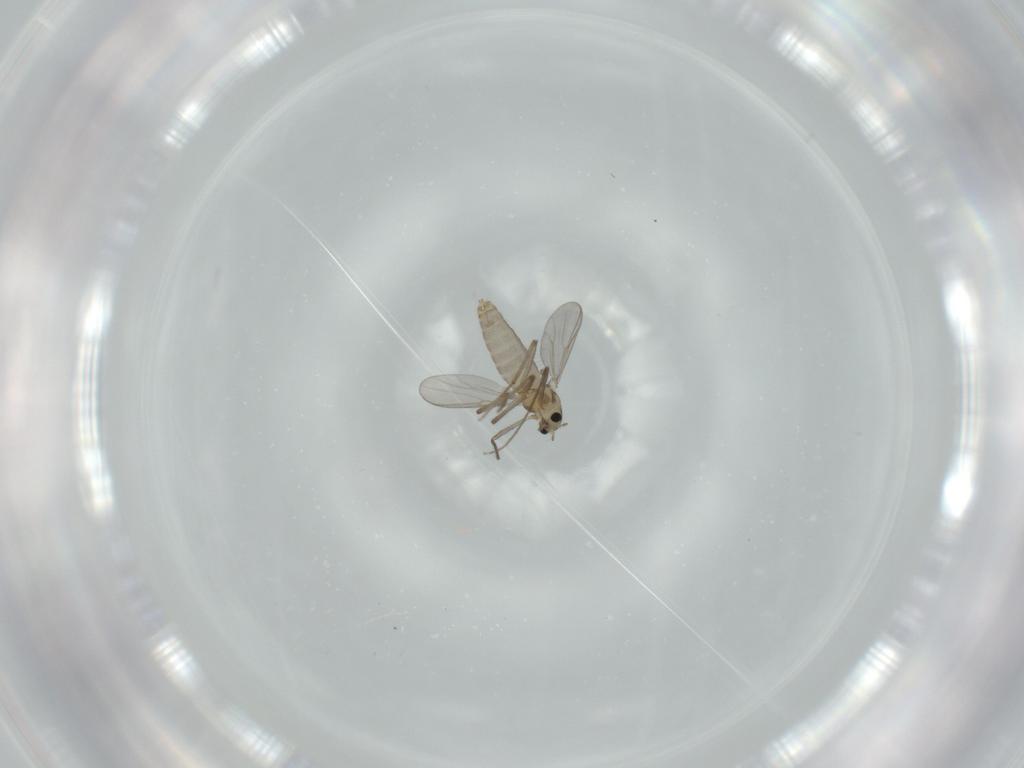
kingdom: Animalia
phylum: Arthropoda
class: Insecta
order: Diptera
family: Chironomidae
